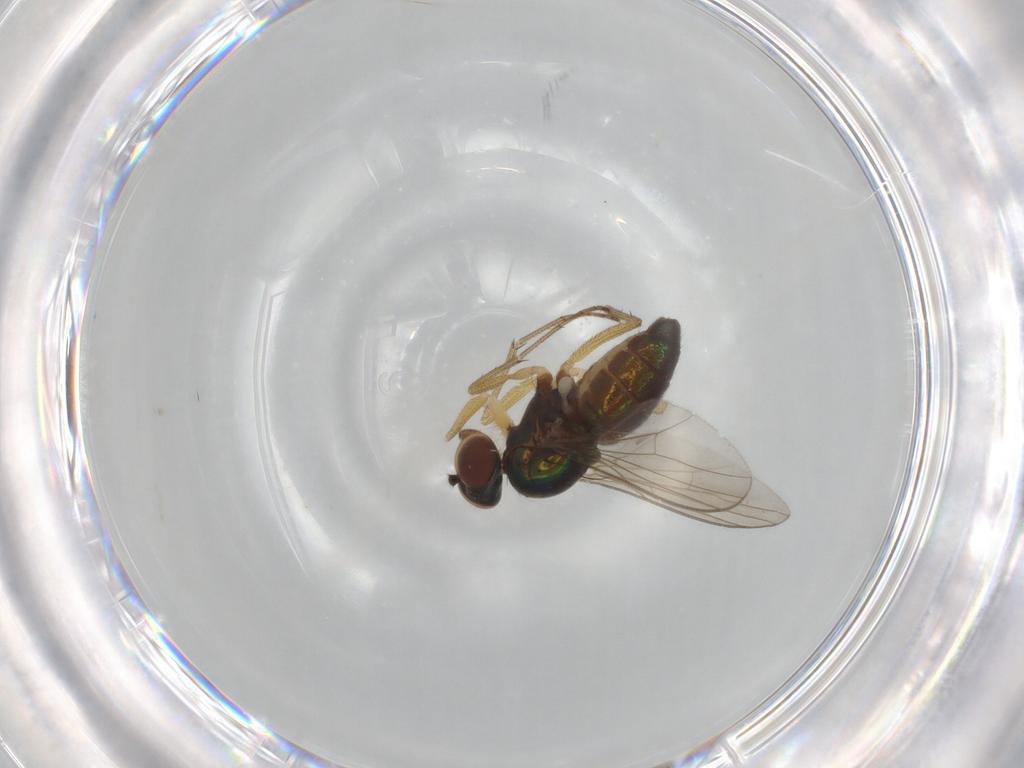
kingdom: Animalia
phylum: Arthropoda
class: Insecta
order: Diptera
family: Dolichopodidae
